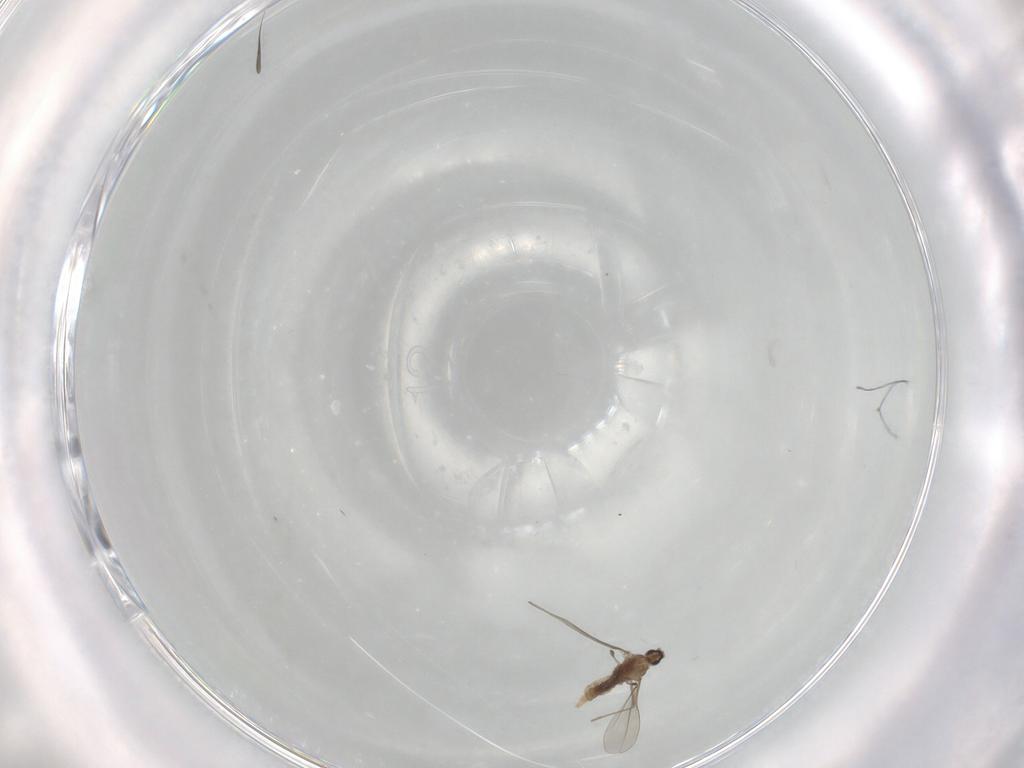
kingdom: Animalia
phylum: Arthropoda
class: Insecta
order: Diptera
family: Cecidomyiidae
